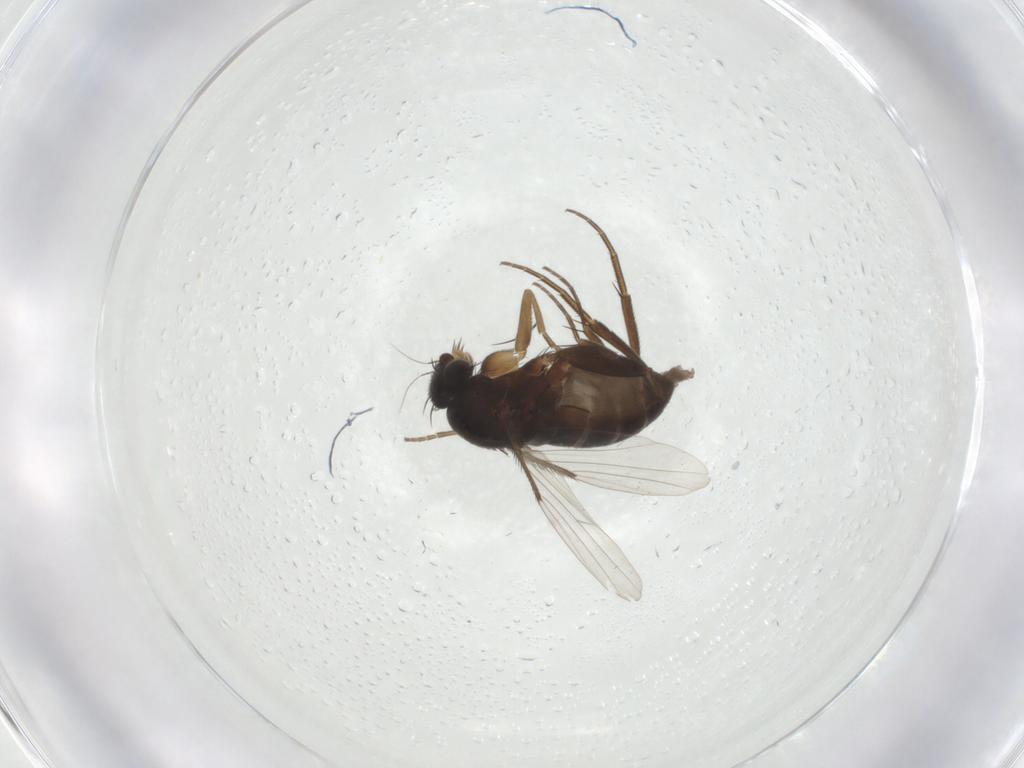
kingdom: Animalia
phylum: Arthropoda
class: Insecta
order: Diptera
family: Phoridae
